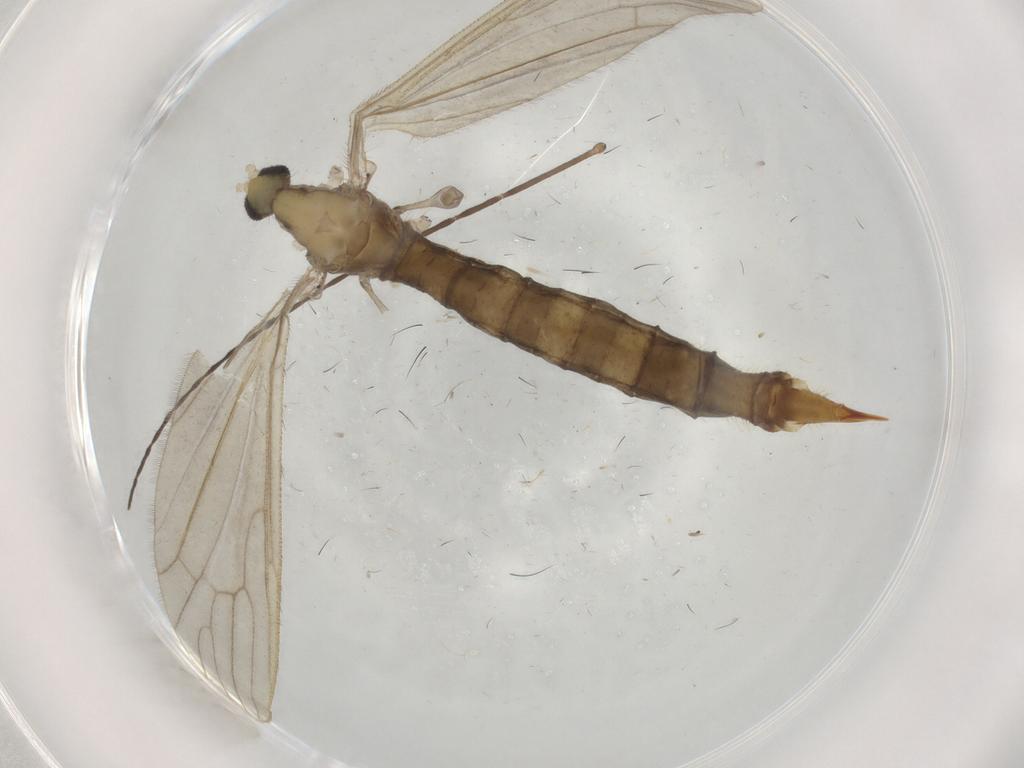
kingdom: Animalia
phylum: Arthropoda
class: Insecta
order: Diptera
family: Limoniidae
